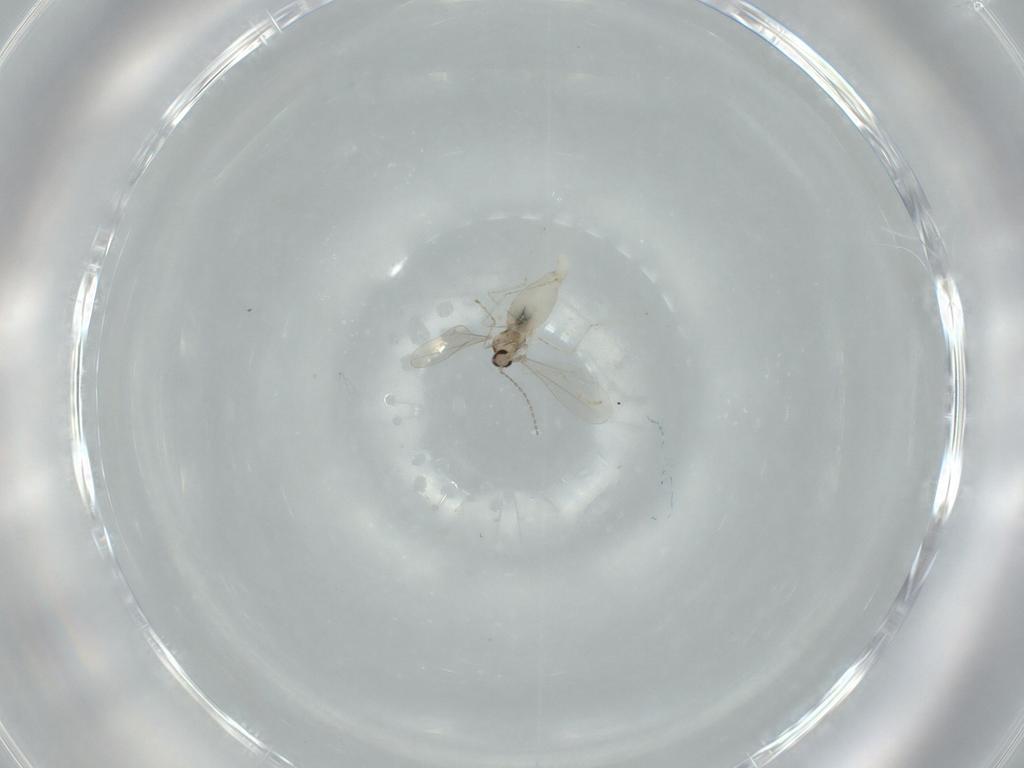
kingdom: Animalia
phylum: Arthropoda
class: Insecta
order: Diptera
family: Cecidomyiidae
